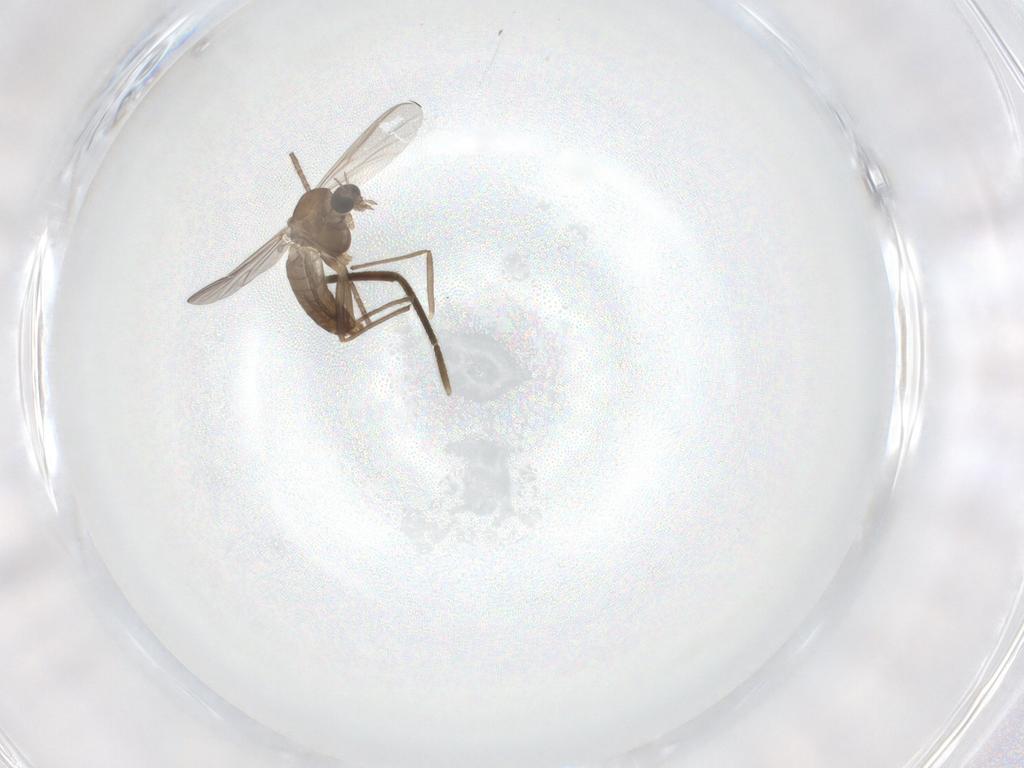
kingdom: Animalia
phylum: Arthropoda
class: Insecta
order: Diptera
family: Chironomidae
